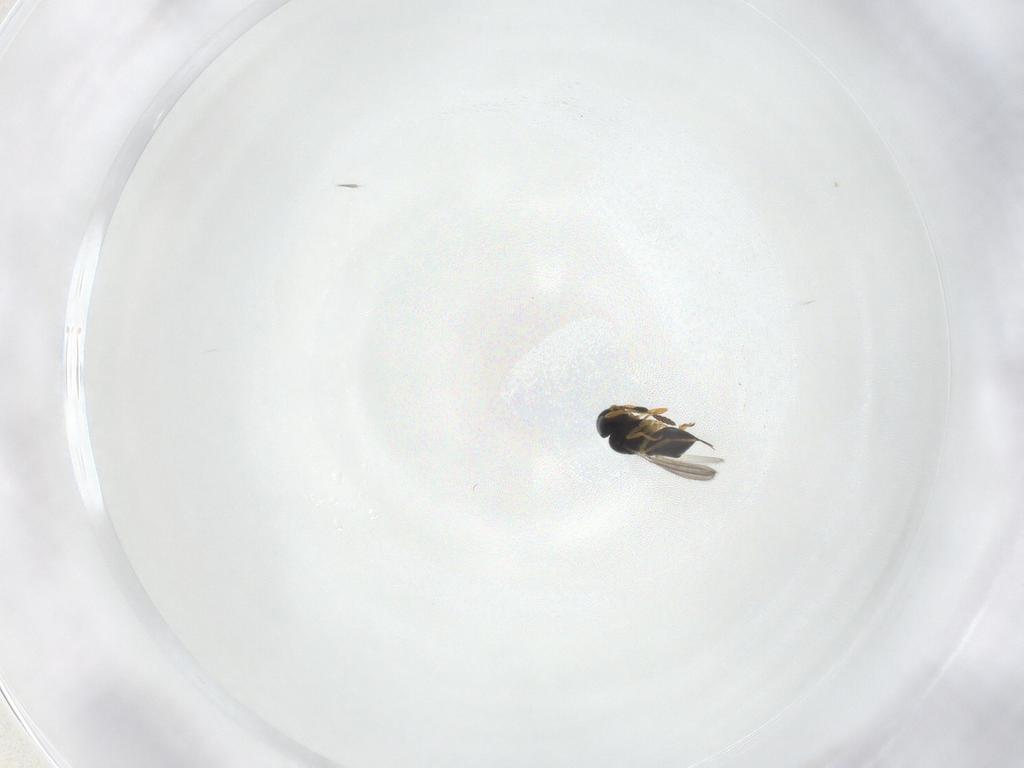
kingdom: Animalia
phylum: Arthropoda
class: Insecta
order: Hymenoptera
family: Scelionidae
